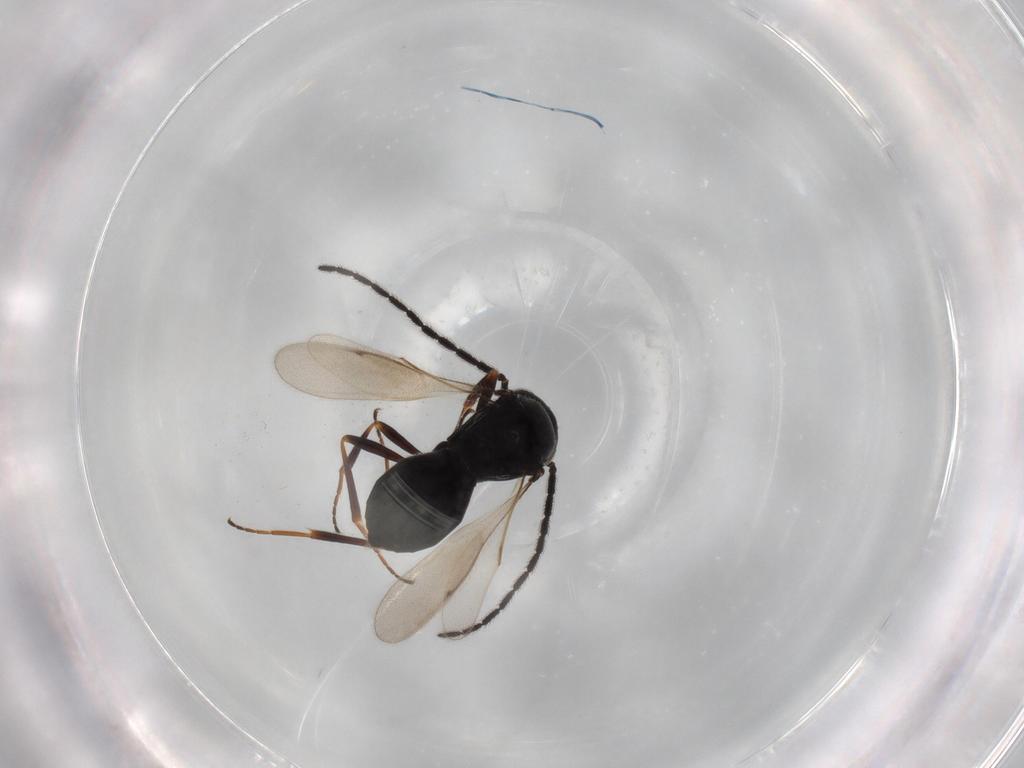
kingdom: Animalia
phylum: Arthropoda
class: Insecta
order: Hymenoptera
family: Scelionidae
